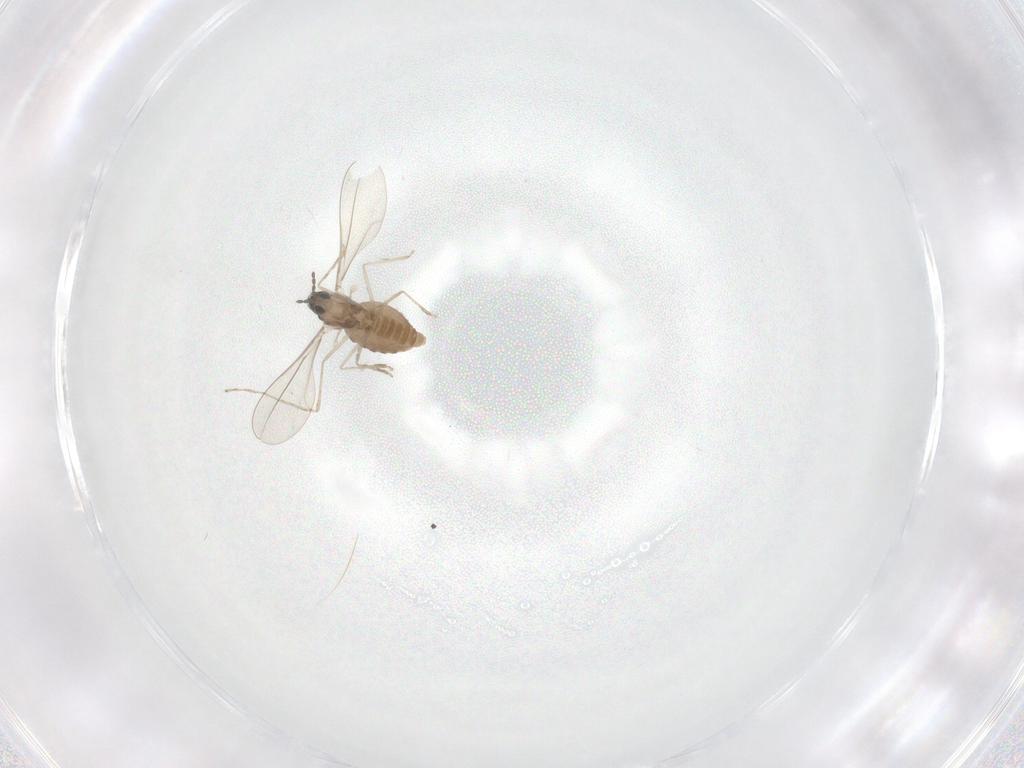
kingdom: Animalia
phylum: Arthropoda
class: Insecta
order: Diptera
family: Cecidomyiidae
